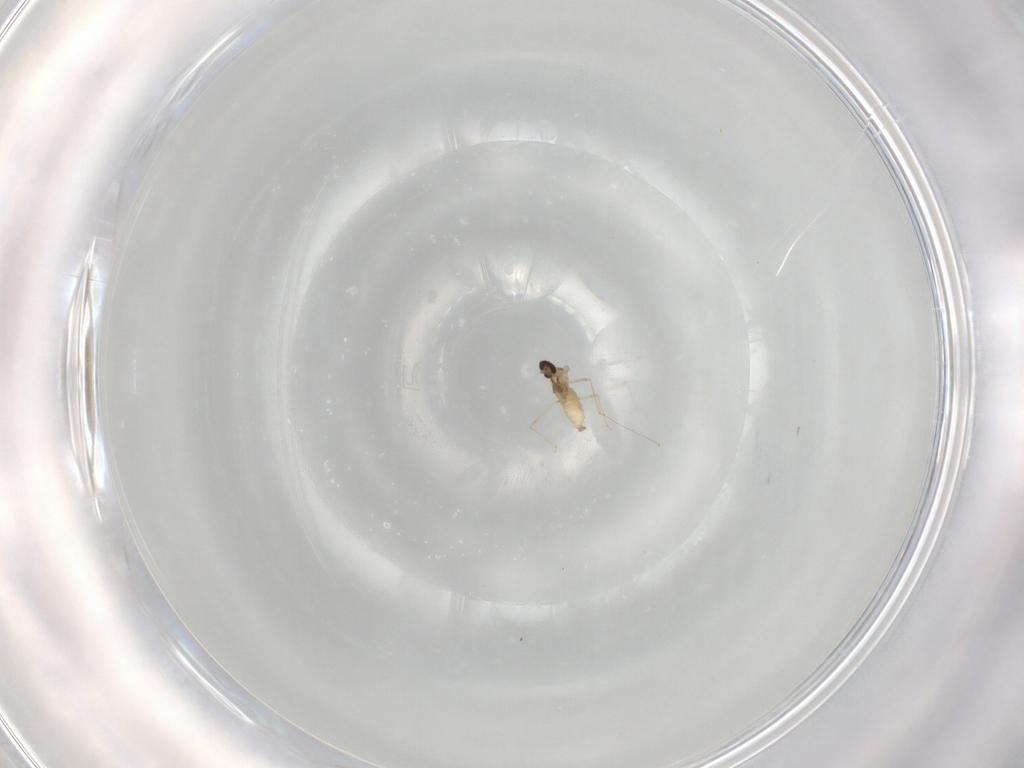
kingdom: Animalia
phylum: Arthropoda
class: Insecta
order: Diptera
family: Cecidomyiidae
